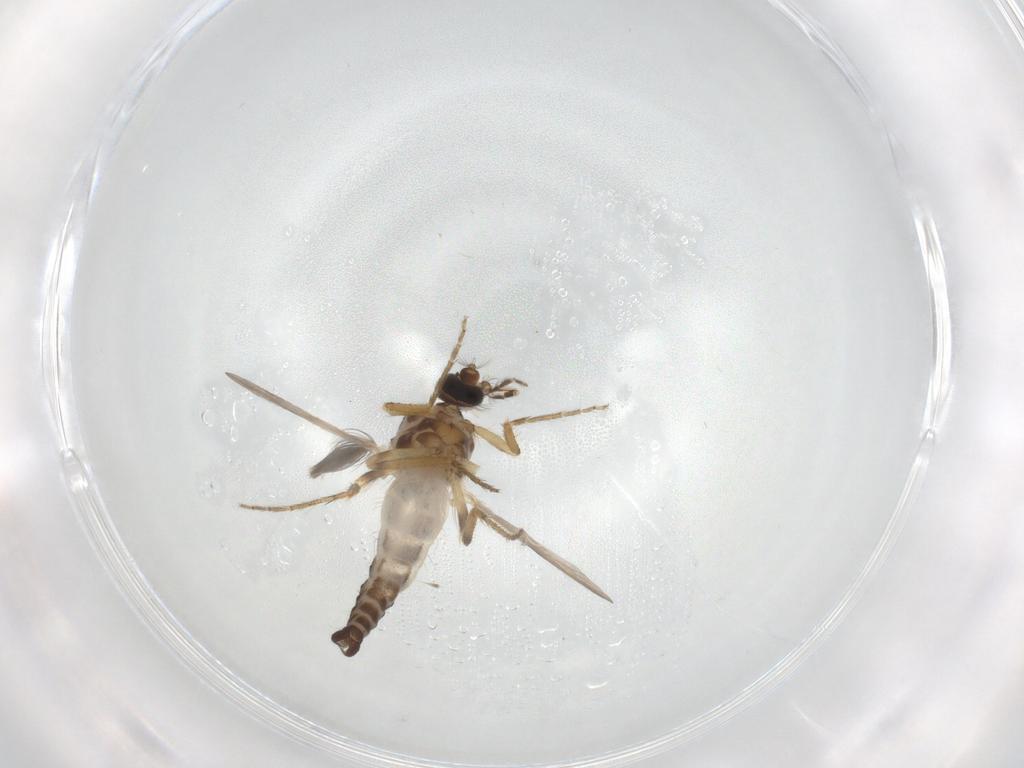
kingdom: Animalia
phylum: Arthropoda
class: Insecta
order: Diptera
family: Ceratopogonidae
